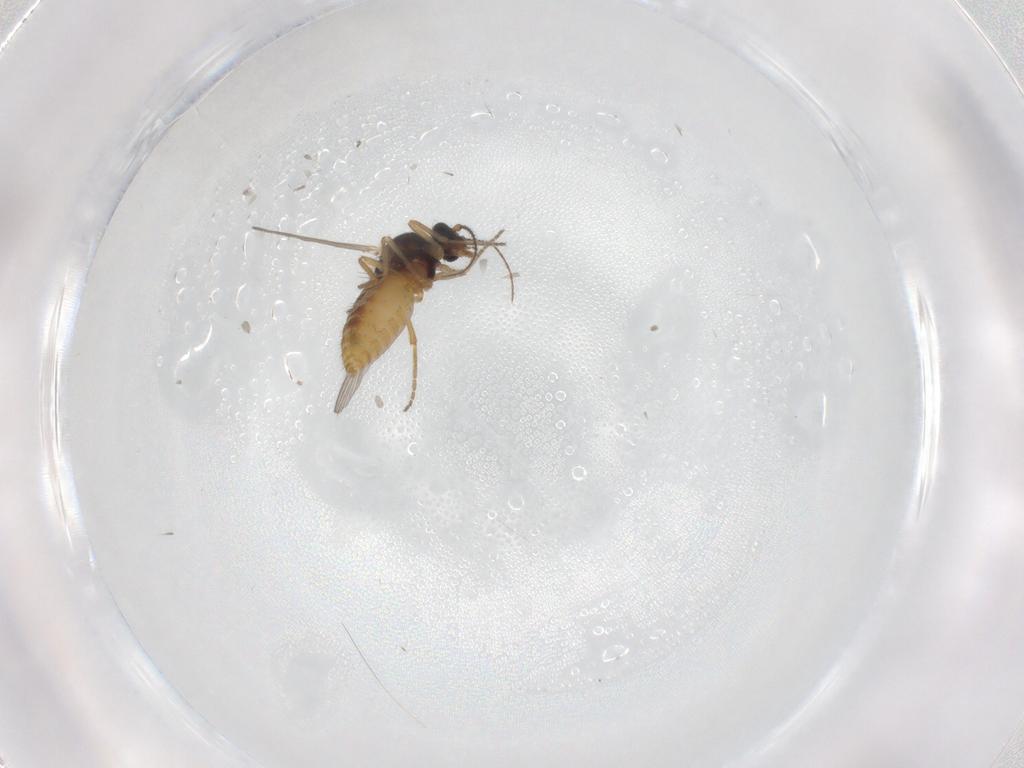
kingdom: Animalia
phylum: Arthropoda
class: Insecta
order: Diptera
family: Ceratopogonidae
